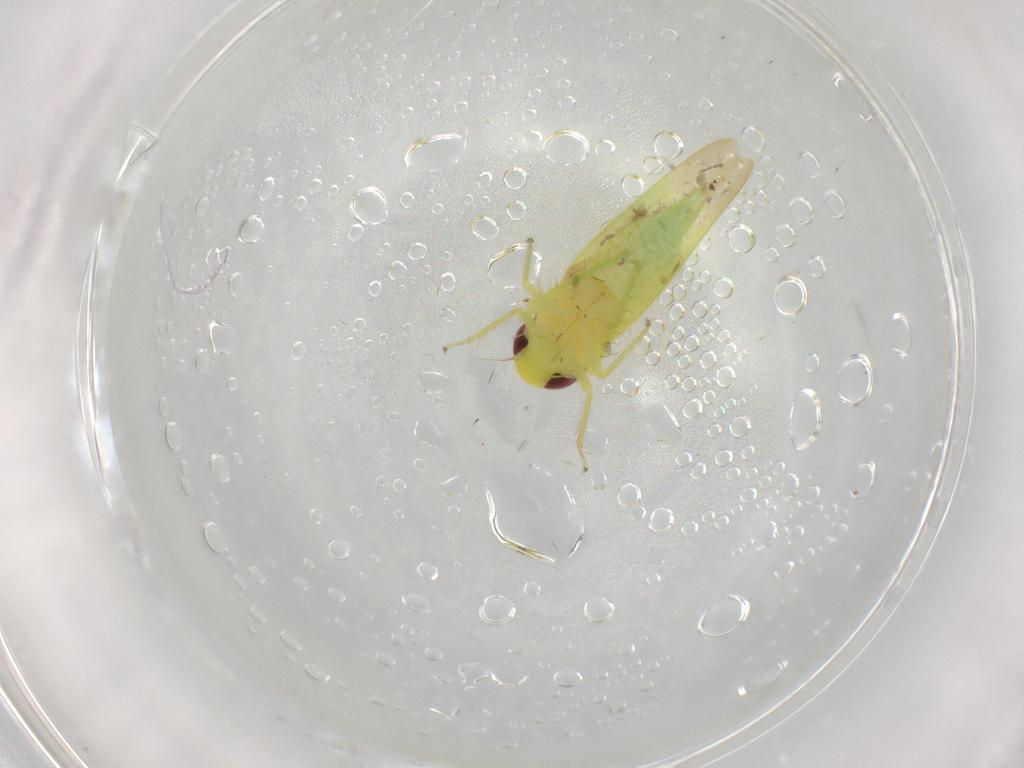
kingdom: Animalia
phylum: Arthropoda
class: Insecta
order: Hemiptera
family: Cicadellidae
